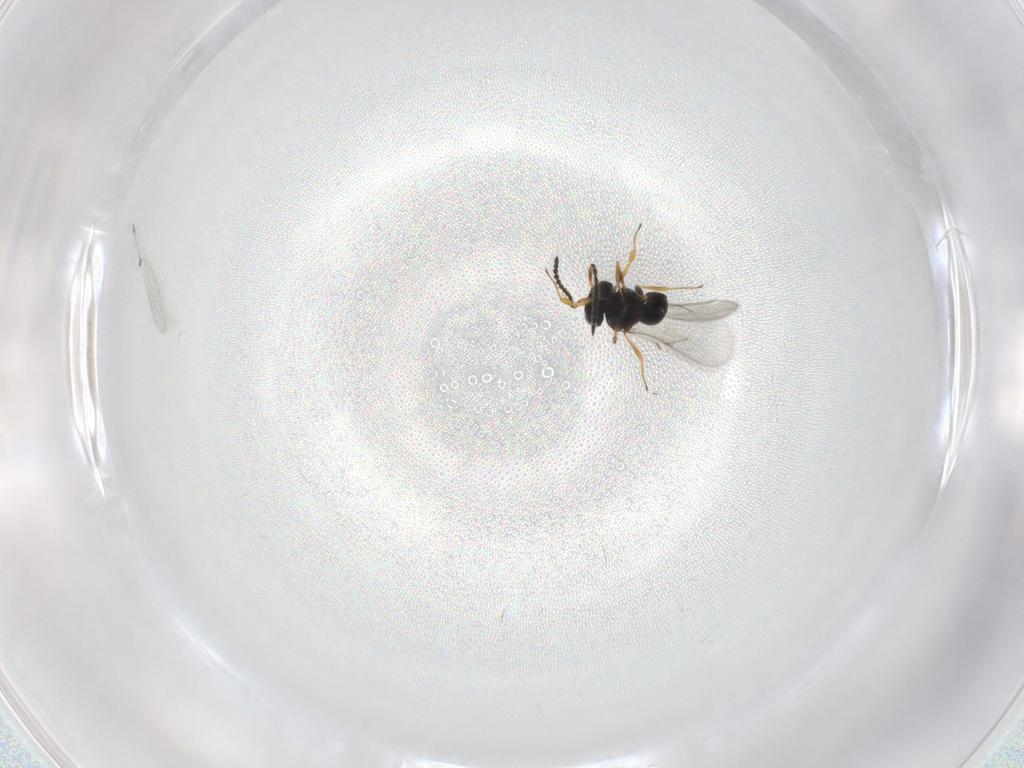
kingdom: Animalia
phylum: Arthropoda
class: Insecta
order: Hymenoptera
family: Scelionidae
